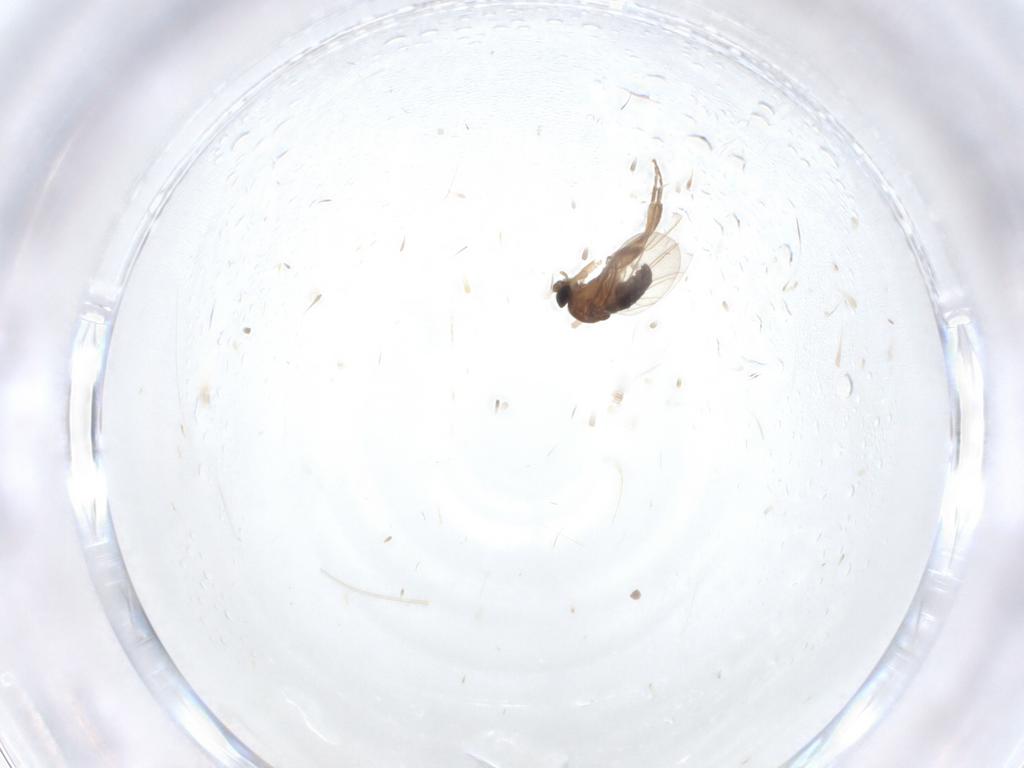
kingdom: Animalia
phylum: Arthropoda
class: Insecta
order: Diptera
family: Phoridae
